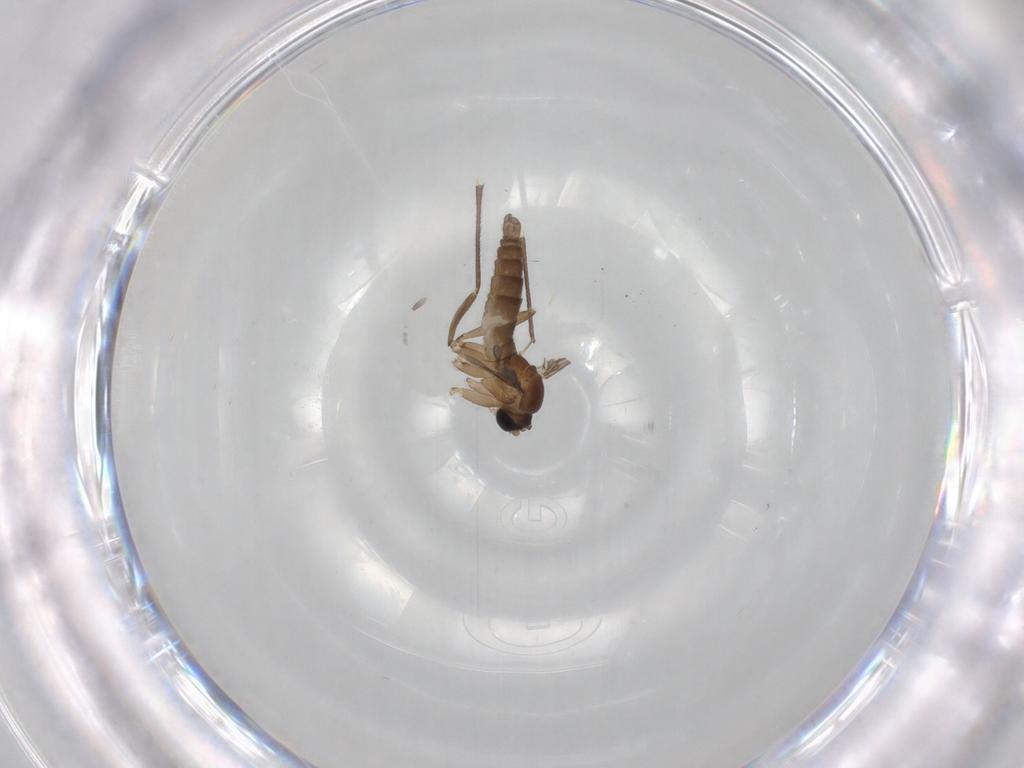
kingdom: Animalia
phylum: Arthropoda
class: Insecta
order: Diptera
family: Sciaridae
